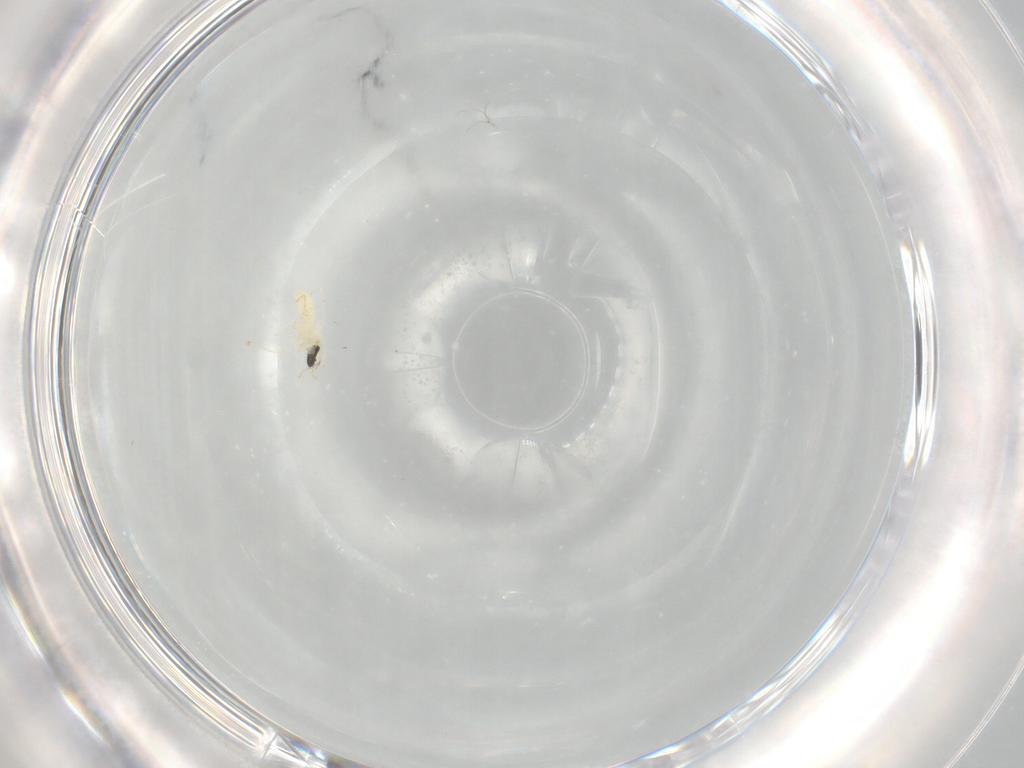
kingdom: Animalia
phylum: Arthropoda
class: Insecta
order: Diptera
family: Cecidomyiidae
